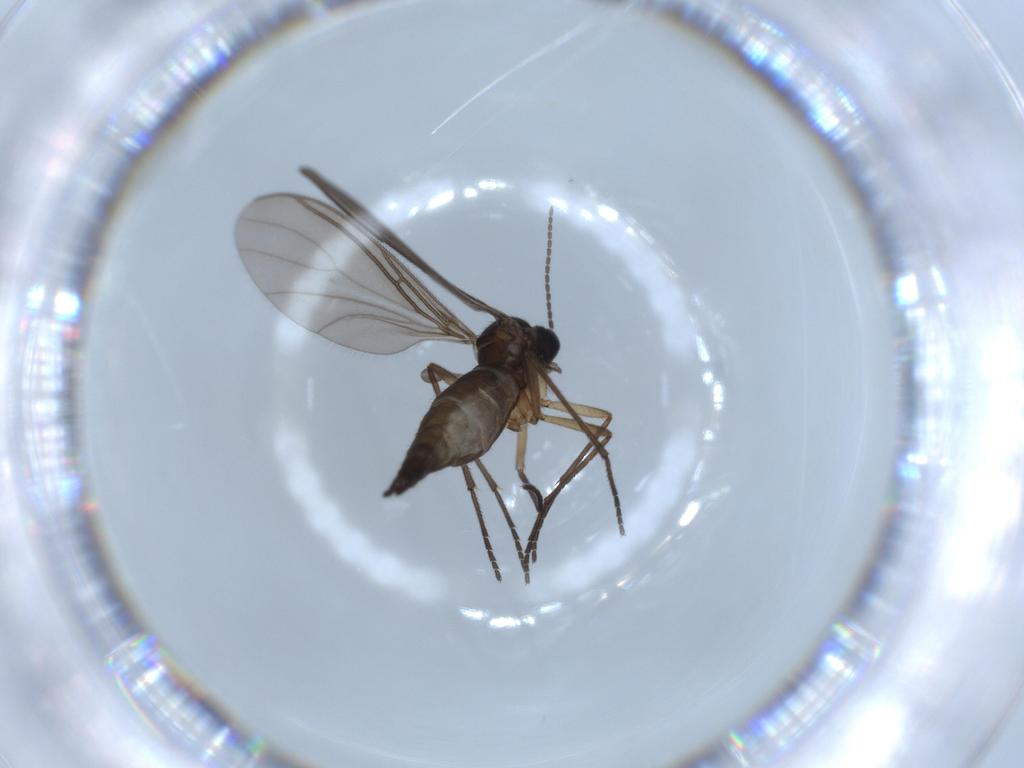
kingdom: Animalia
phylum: Arthropoda
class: Insecta
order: Diptera
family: Sciaridae
